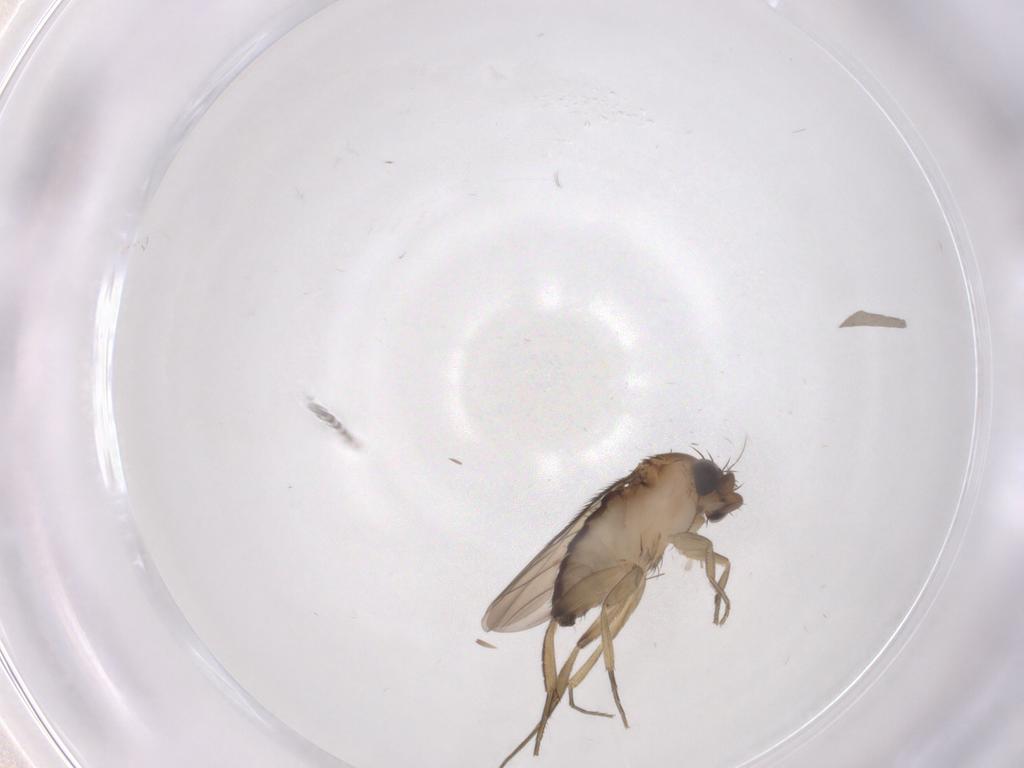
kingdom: Animalia
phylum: Arthropoda
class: Insecta
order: Diptera
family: Phoridae
